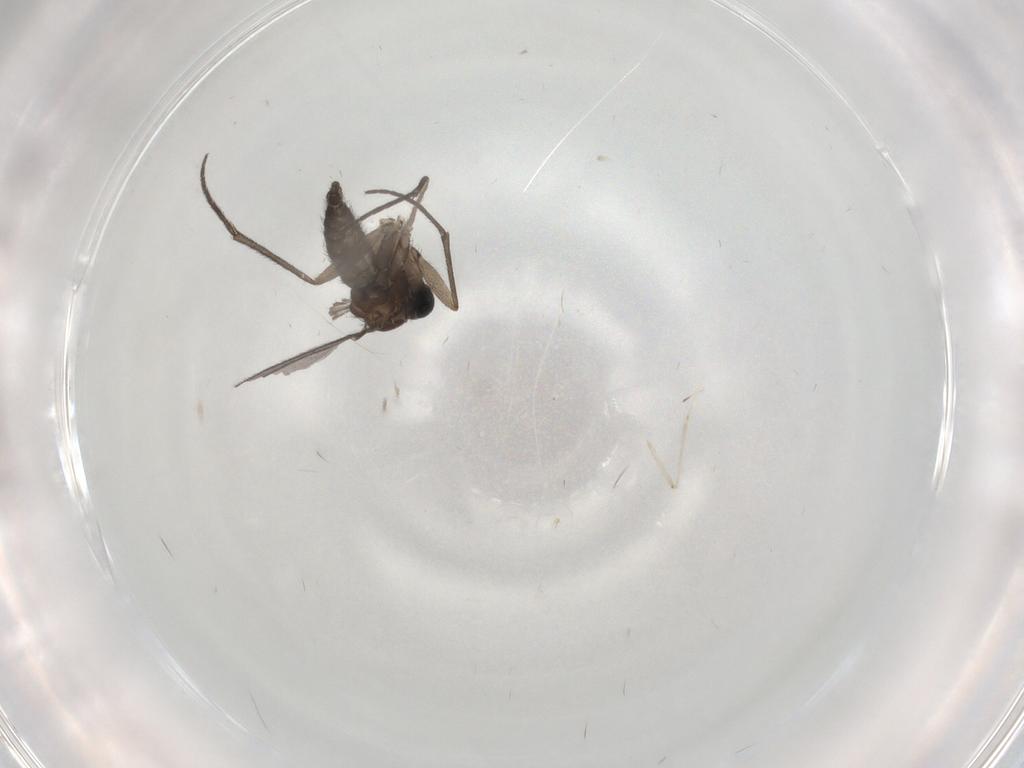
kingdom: Animalia
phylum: Arthropoda
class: Insecta
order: Diptera
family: Sciaridae
